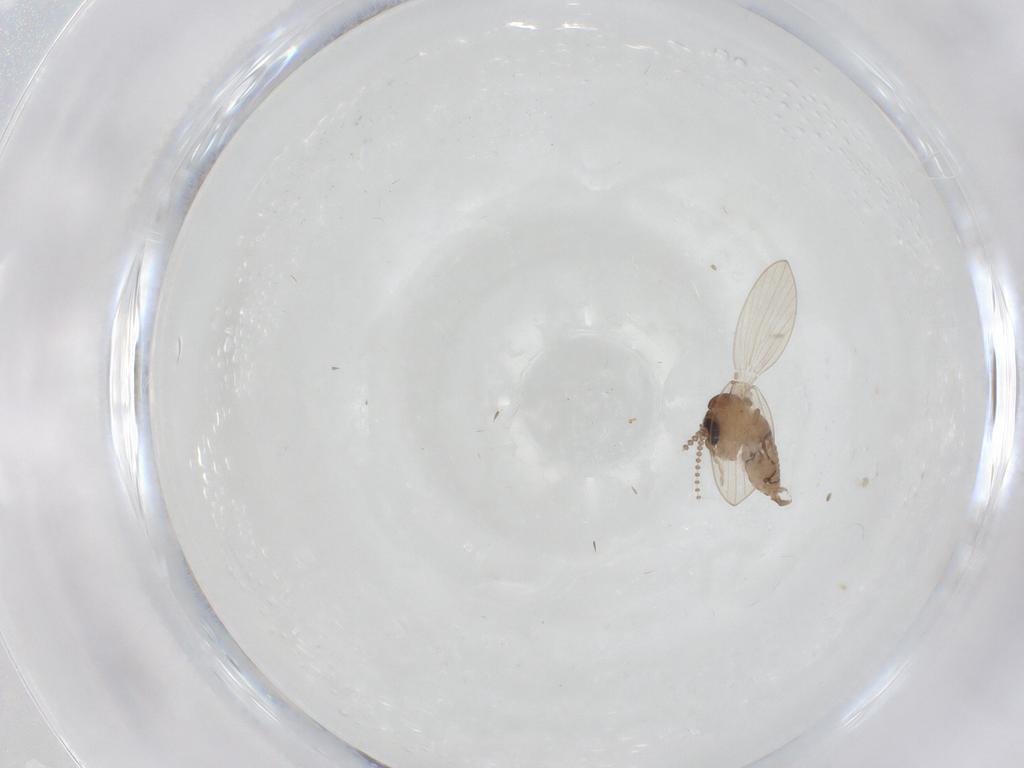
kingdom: Animalia
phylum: Arthropoda
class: Insecta
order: Diptera
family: Psychodidae
